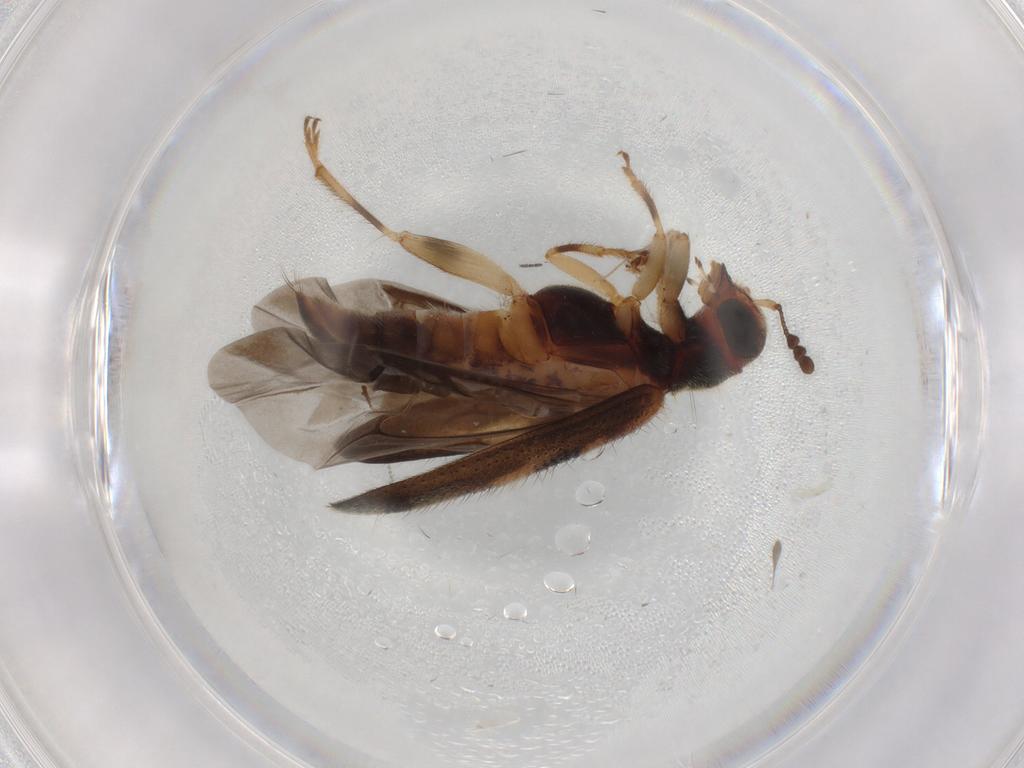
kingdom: Animalia
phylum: Arthropoda
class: Insecta
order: Coleoptera
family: Cleridae
